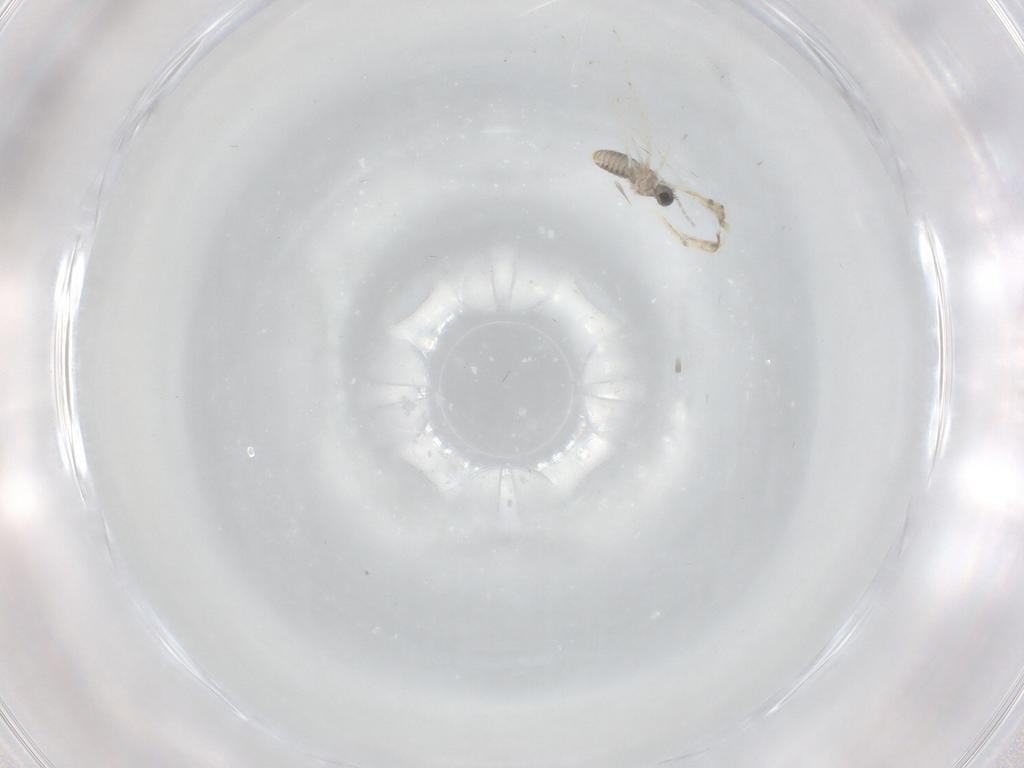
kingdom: Animalia
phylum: Arthropoda
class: Insecta
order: Diptera
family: Cecidomyiidae
